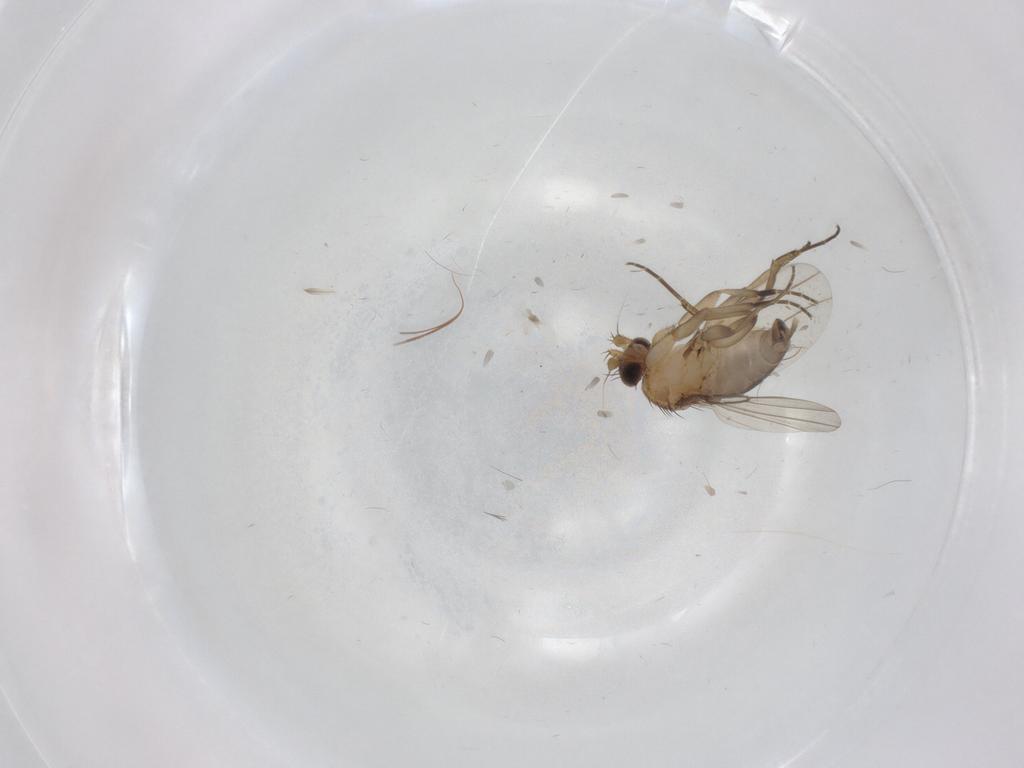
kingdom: Animalia
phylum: Arthropoda
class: Insecta
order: Diptera
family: Phoridae
